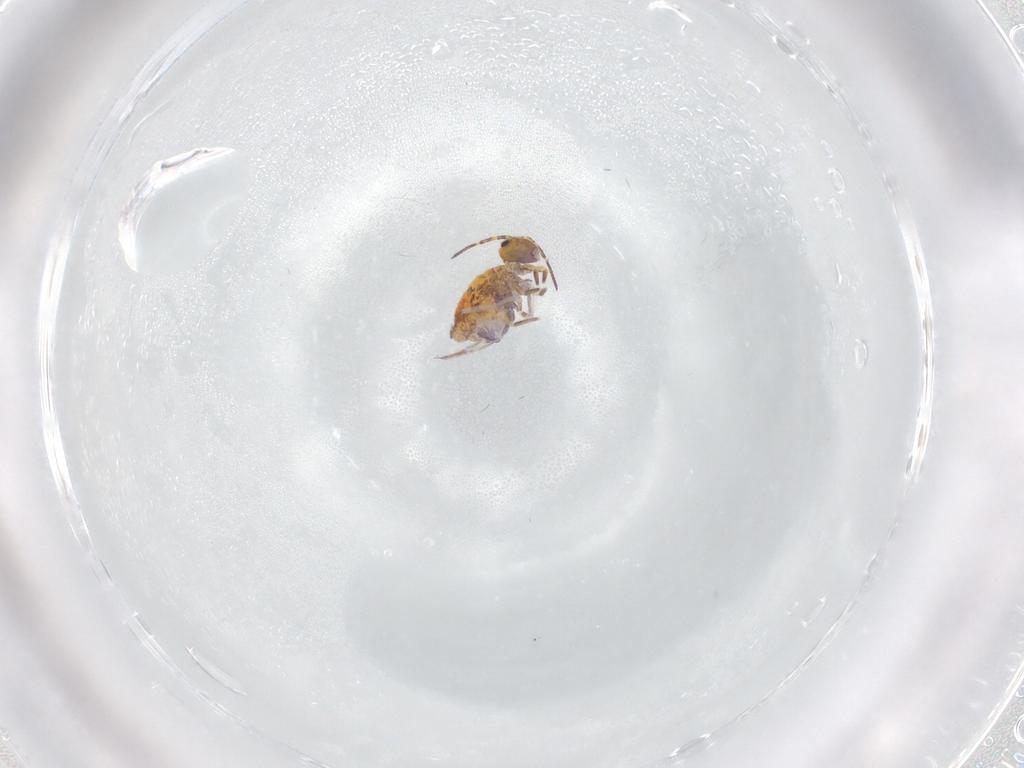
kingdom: Animalia
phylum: Arthropoda
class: Collembola
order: Symphypleona
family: Sminthuridae
